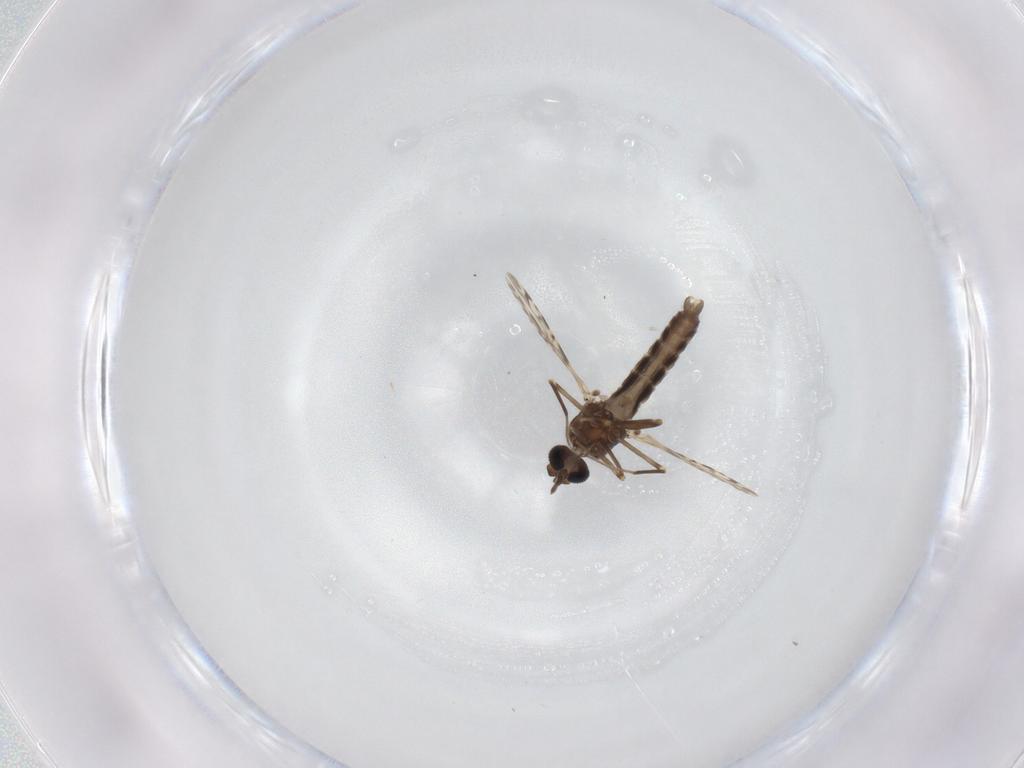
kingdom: Animalia
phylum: Arthropoda
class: Insecta
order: Diptera
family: Ceratopogonidae
